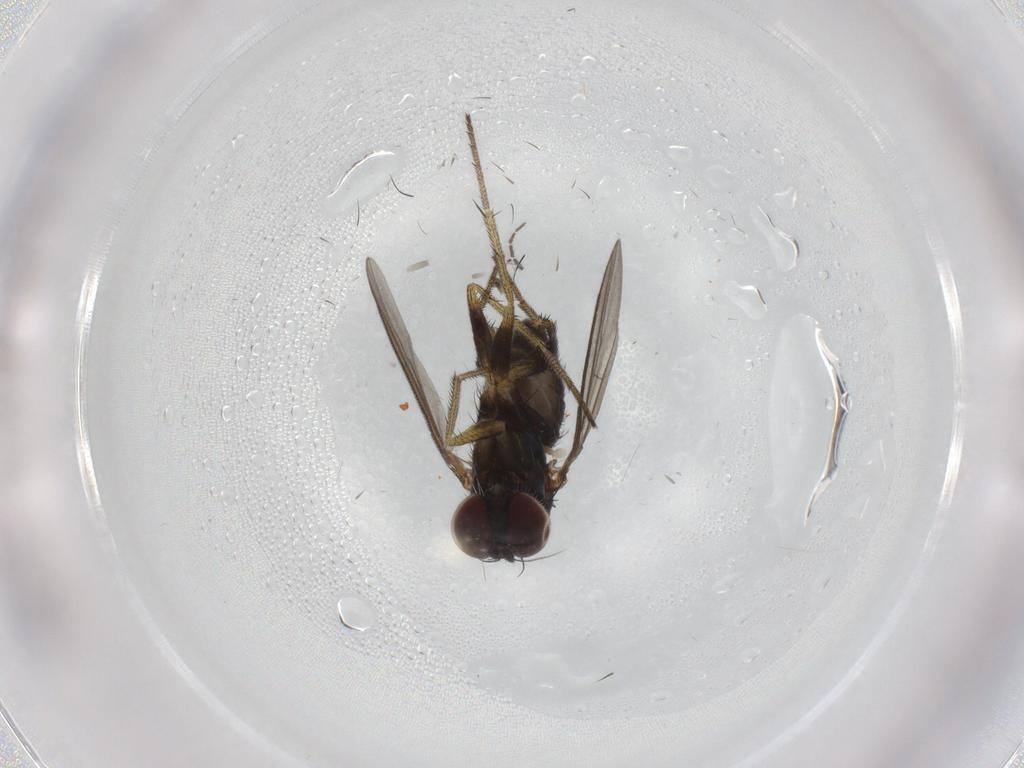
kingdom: Animalia
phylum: Arthropoda
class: Insecta
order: Diptera
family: Sciaridae
